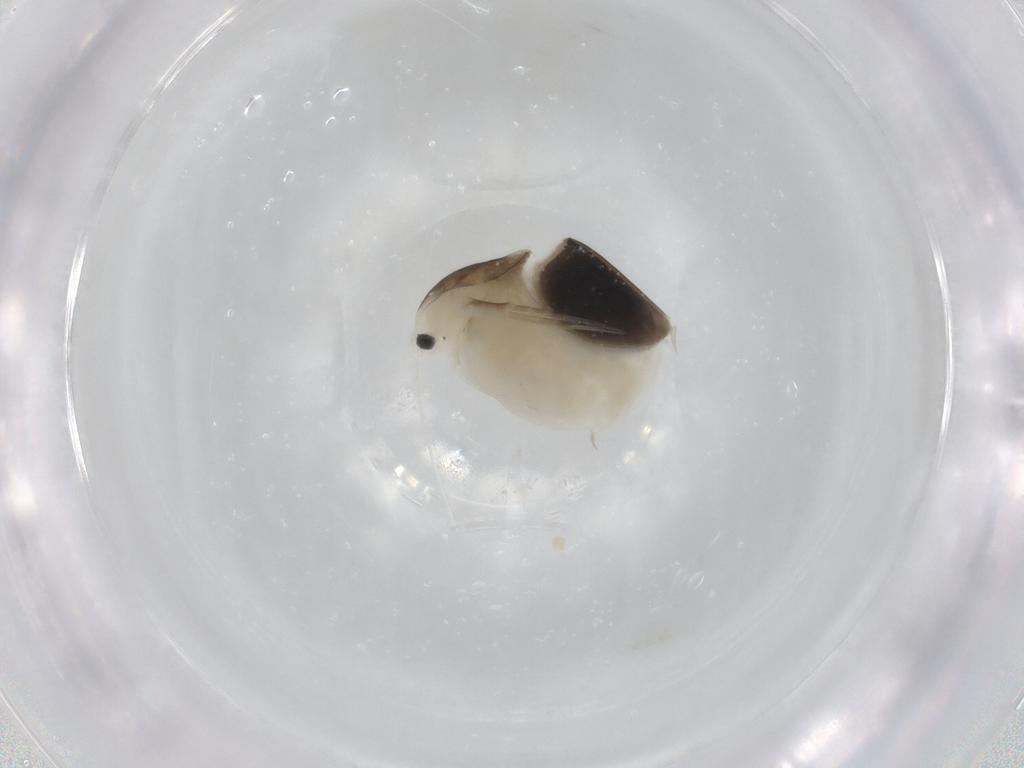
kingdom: Animalia
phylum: Arthropoda
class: Branchiopoda
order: Diplostraca
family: Daphniidae
